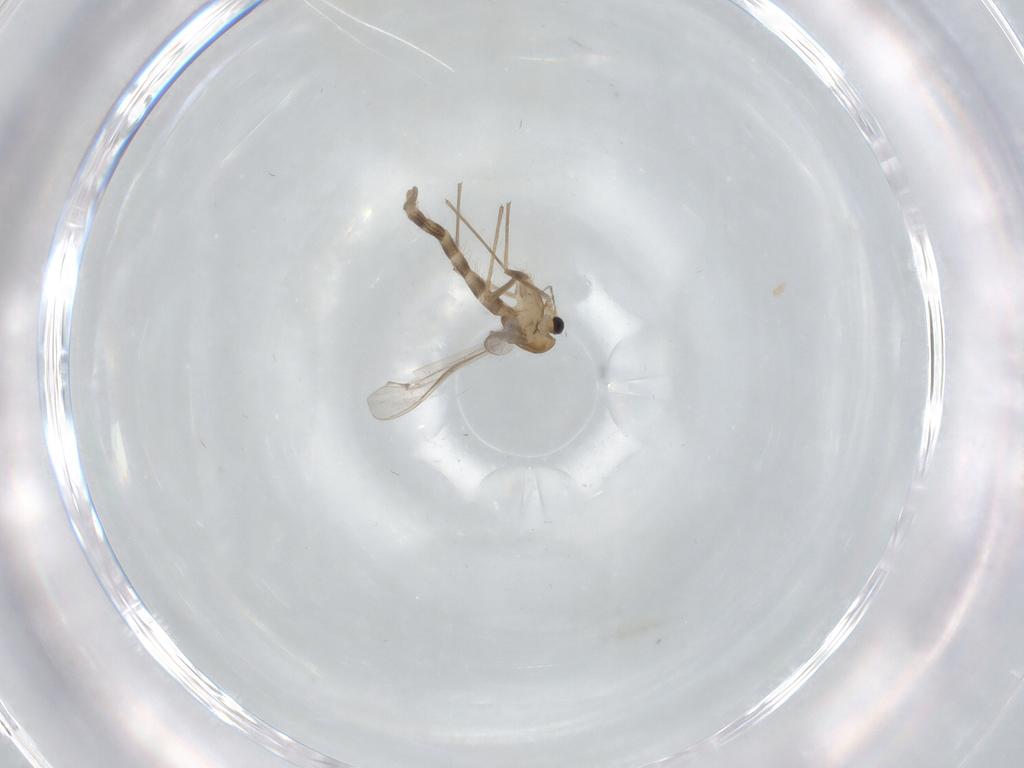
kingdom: Animalia
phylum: Arthropoda
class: Insecta
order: Diptera
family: Chironomidae
